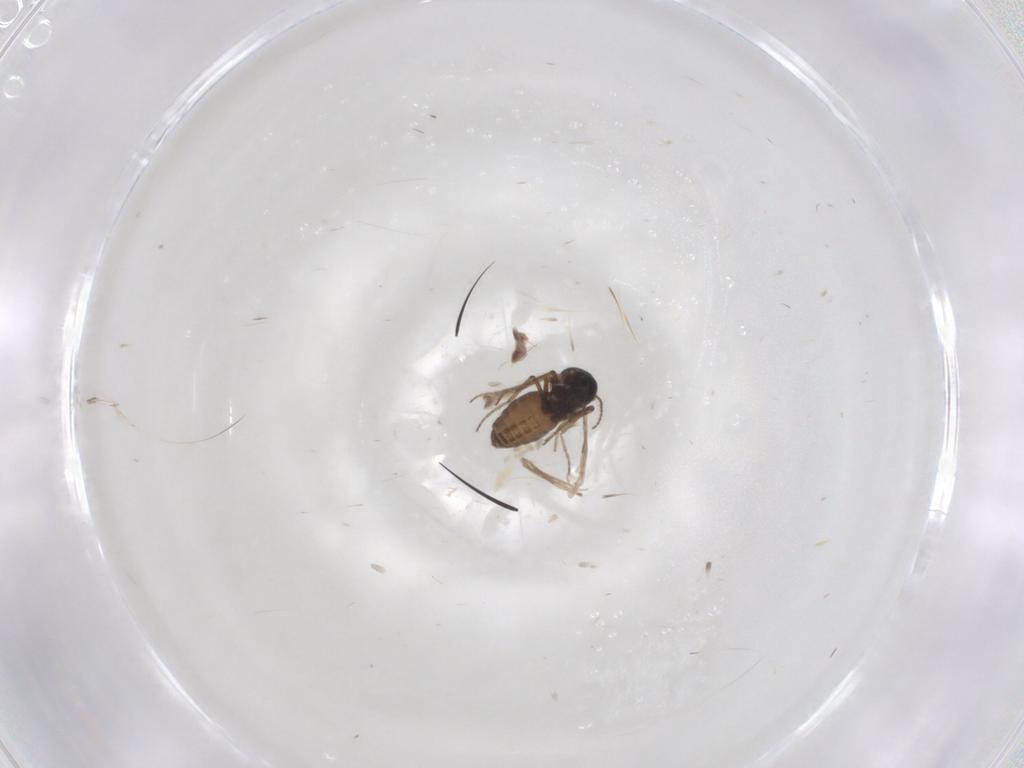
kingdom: Animalia
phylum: Arthropoda
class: Insecta
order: Diptera
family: Ceratopogonidae
